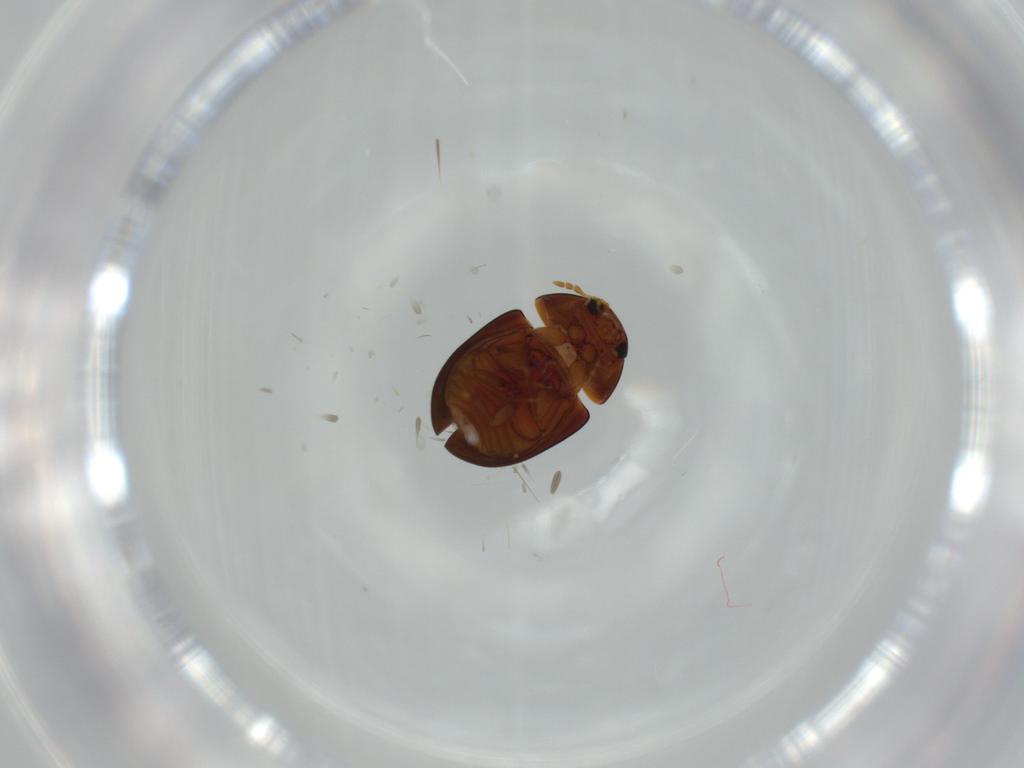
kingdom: Animalia
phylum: Arthropoda
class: Insecta
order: Coleoptera
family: Phalacridae
